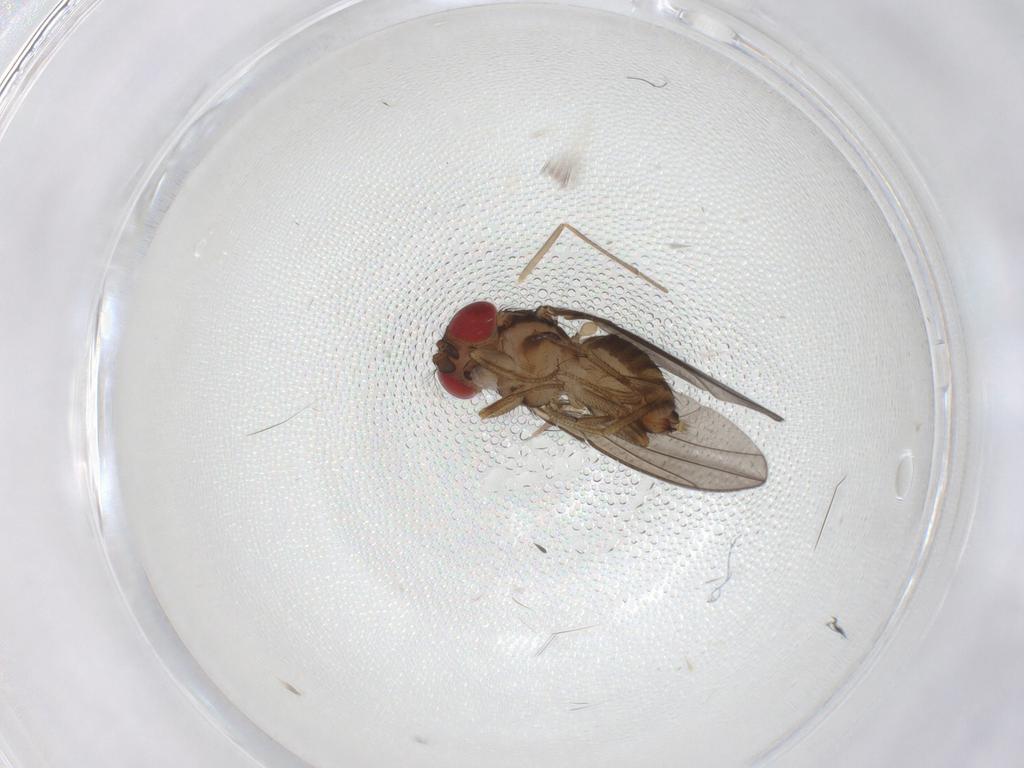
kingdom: Animalia
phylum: Arthropoda
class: Insecta
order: Diptera
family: Drosophilidae
